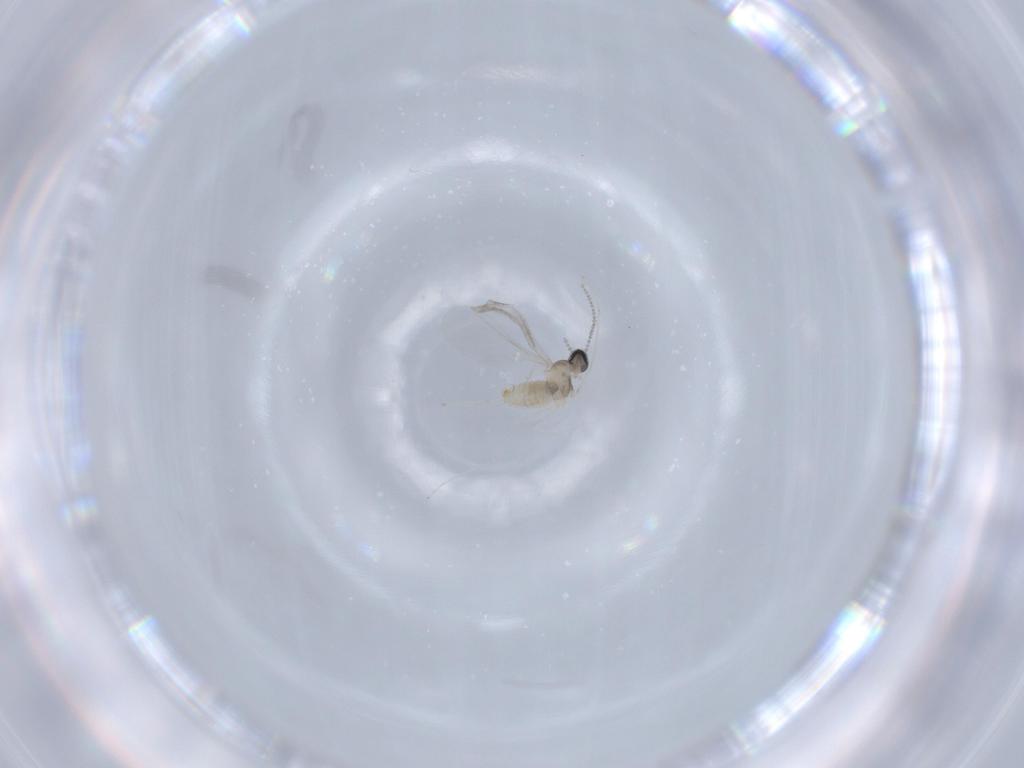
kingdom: Animalia
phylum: Arthropoda
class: Insecta
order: Diptera
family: Cecidomyiidae
